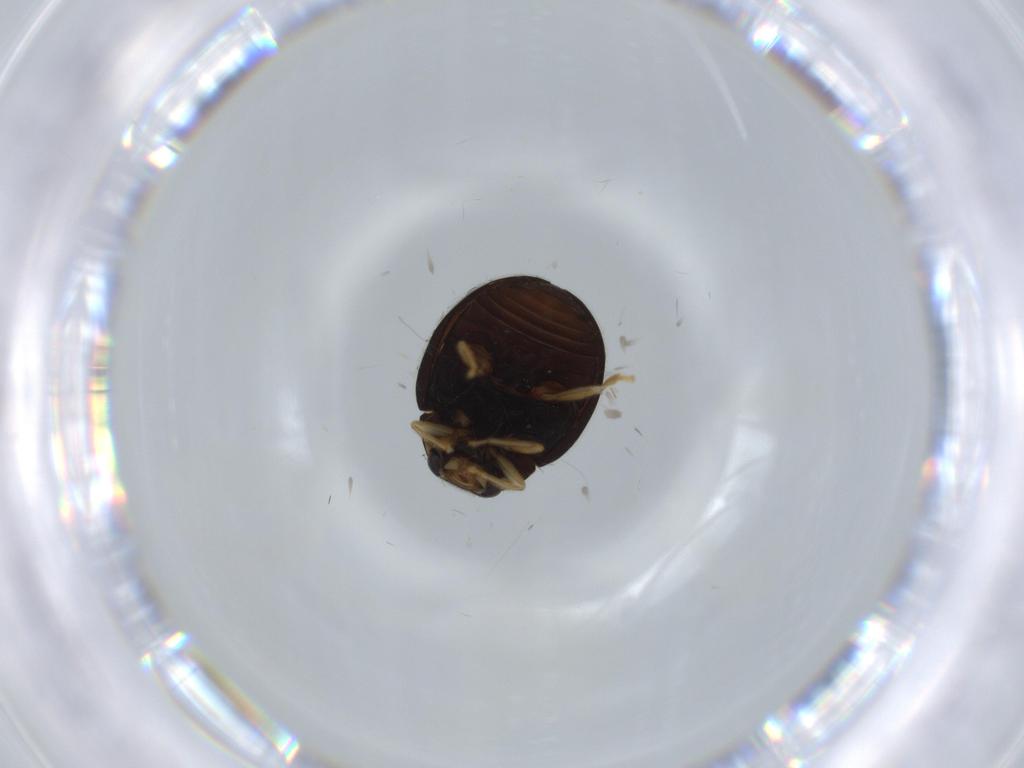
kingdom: Animalia
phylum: Arthropoda
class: Insecta
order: Coleoptera
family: Coccinellidae
